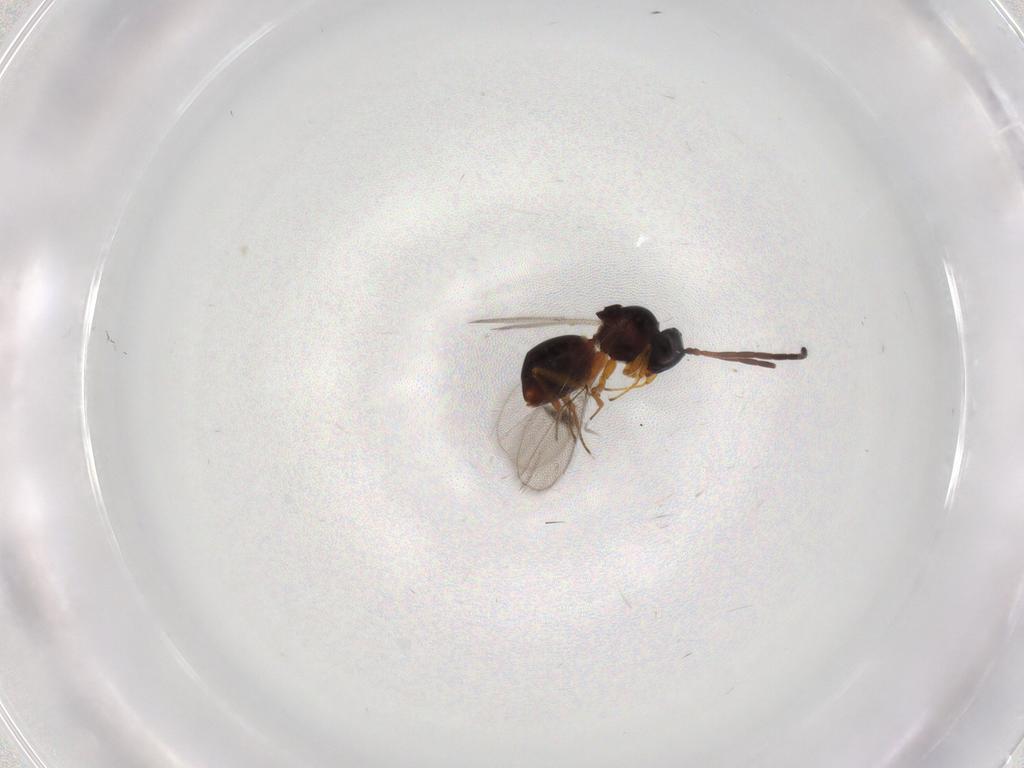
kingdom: Animalia
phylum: Arthropoda
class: Insecta
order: Hymenoptera
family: Figitidae
